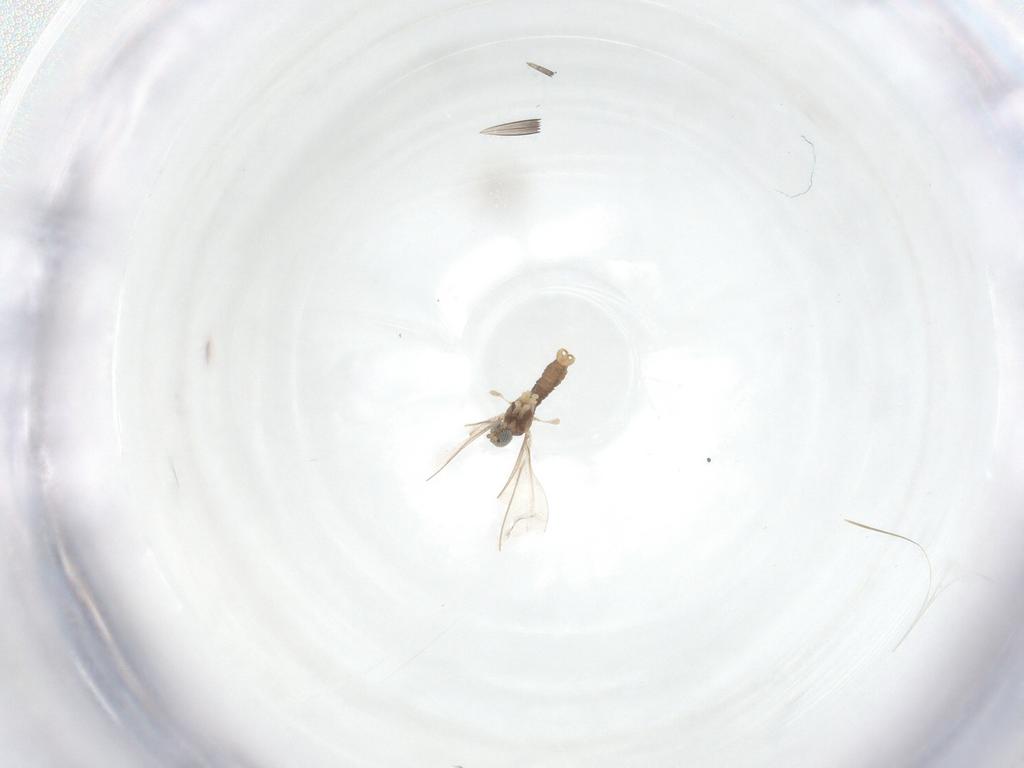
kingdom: Animalia
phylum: Arthropoda
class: Insecta
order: Diptera
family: Cecidomyiidae
